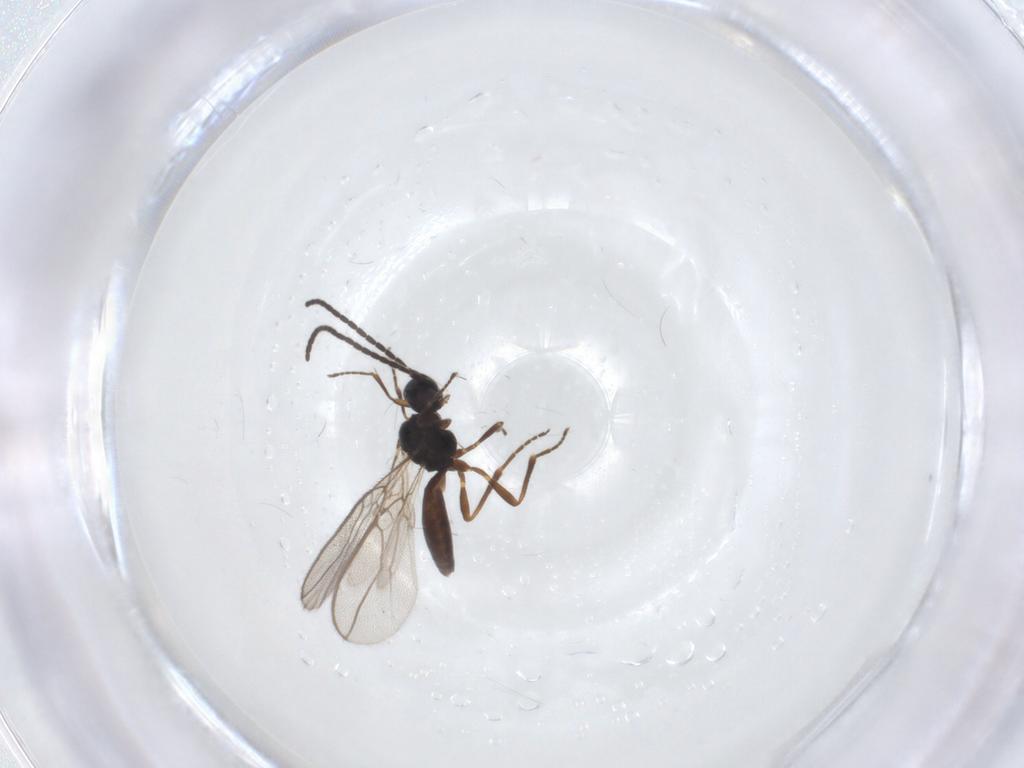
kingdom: Animalia
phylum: Arthropoda
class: Insecta
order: Hymenoptera
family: Braconidae
